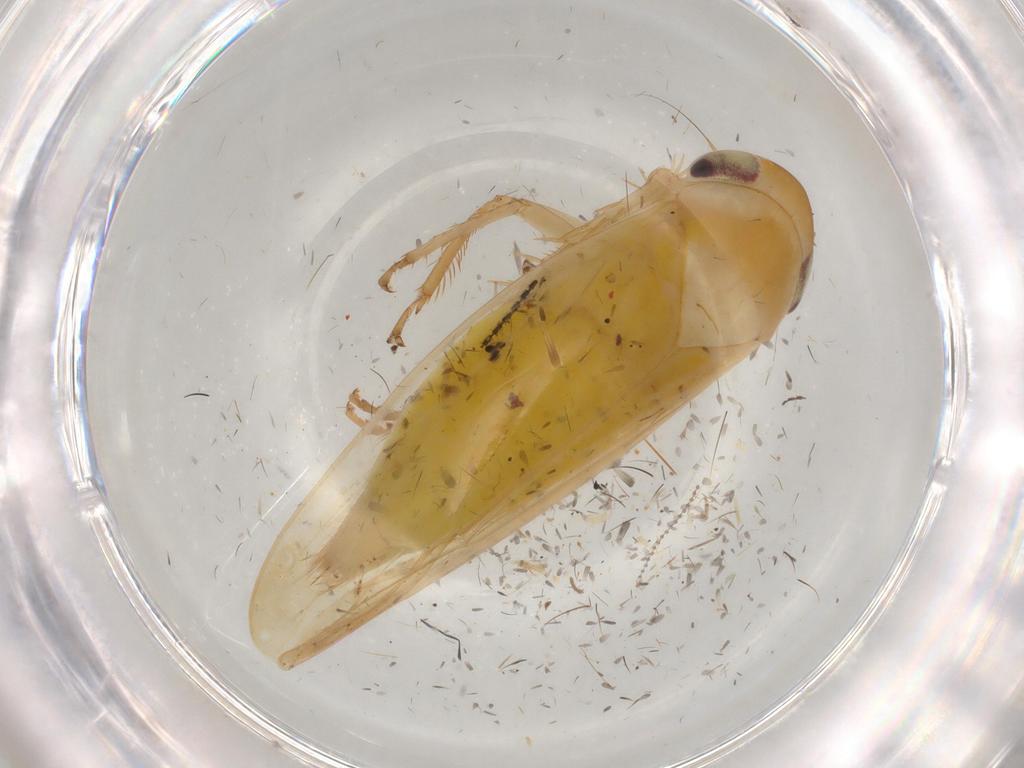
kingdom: Animalia
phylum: Arthropoda
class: Insecta
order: Hemiptera
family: Cicadellidae
